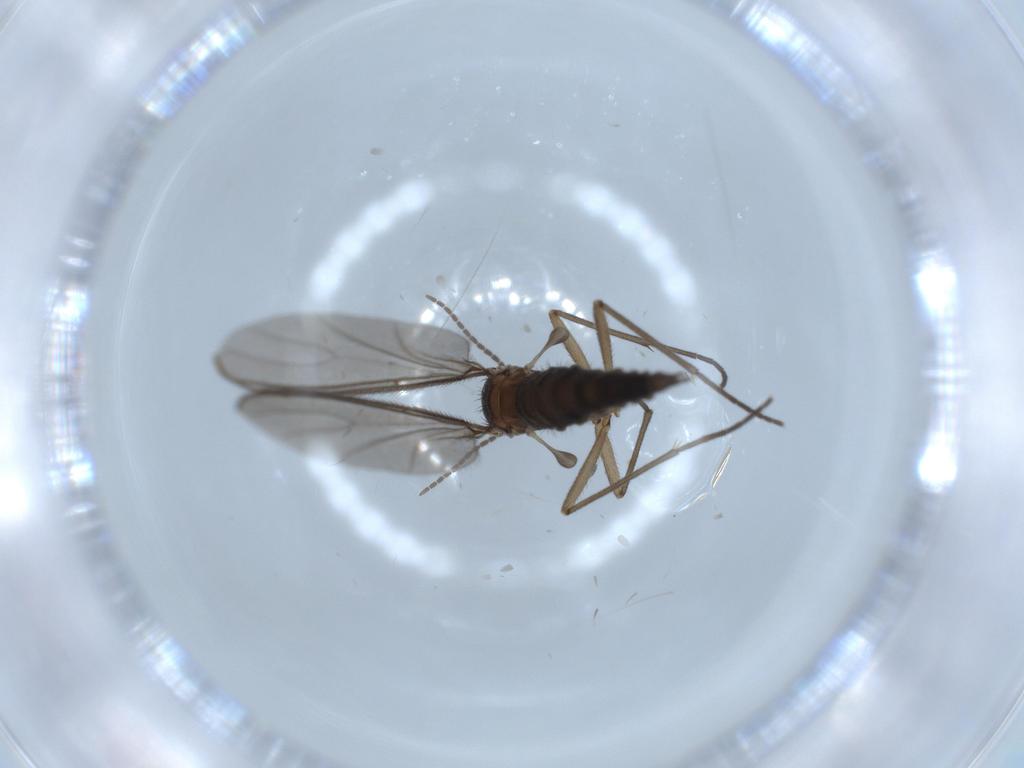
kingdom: Animalia
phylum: Arthropoda
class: Insecta
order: Diptera
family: Sciaridae
